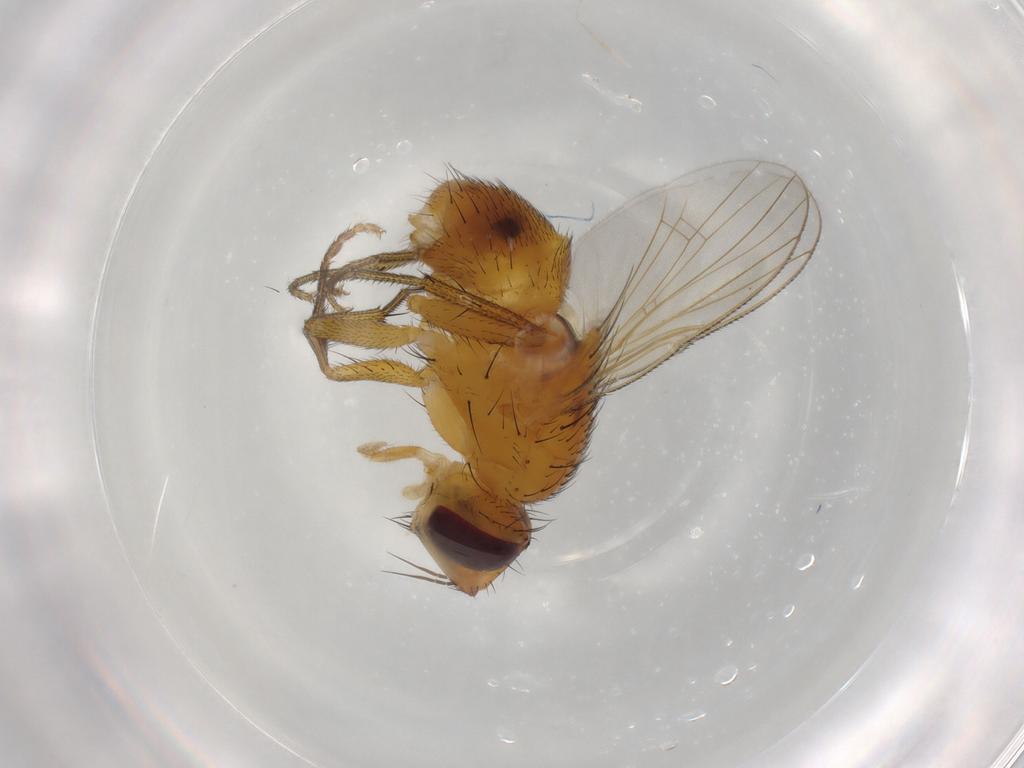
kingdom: Animalia
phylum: Arthropoda
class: Insecta
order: Diptera
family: Muscidae
